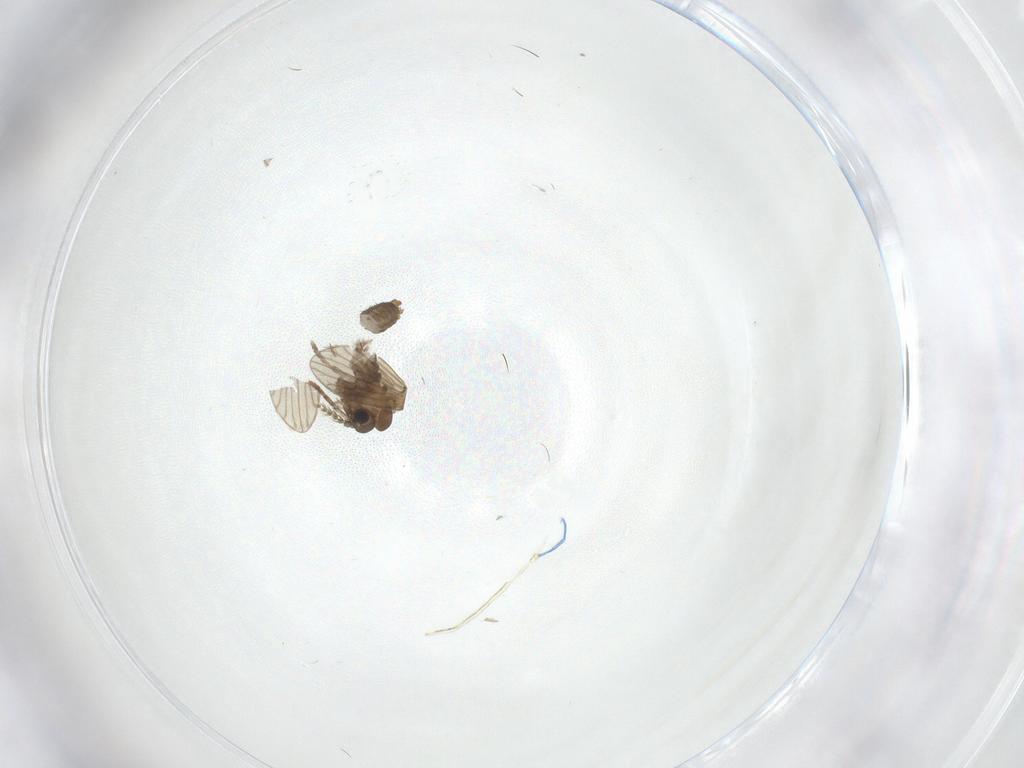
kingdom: Animalia
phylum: Arthropoda
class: Insecta
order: Diptera
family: Psychodidae
